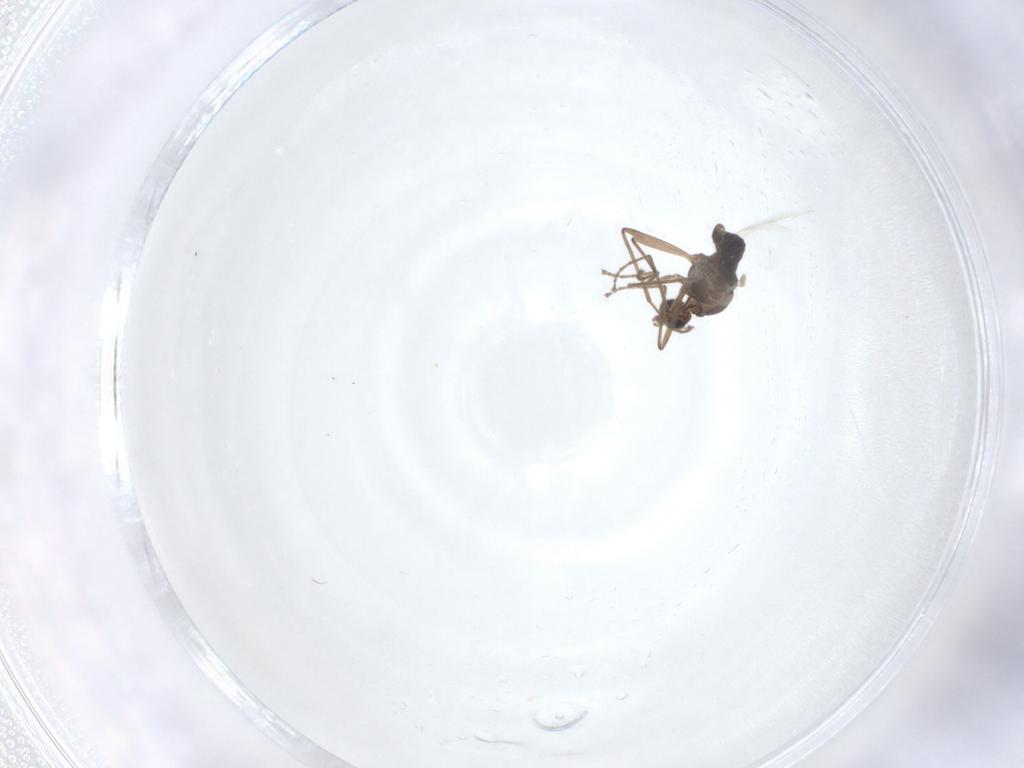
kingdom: Animalia
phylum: Arthropoda
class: Insecta
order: Diptera
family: Cecidomyiidae
